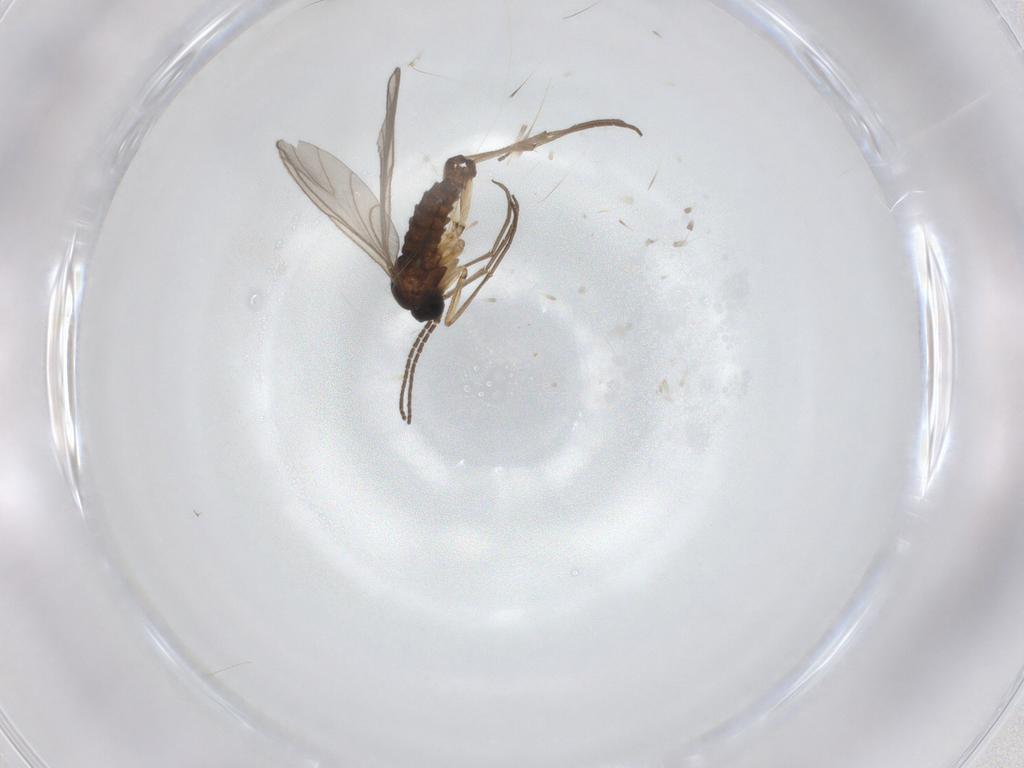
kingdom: Animalia
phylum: Arthropoda
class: Insecta
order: Diptera
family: Sciaridae
